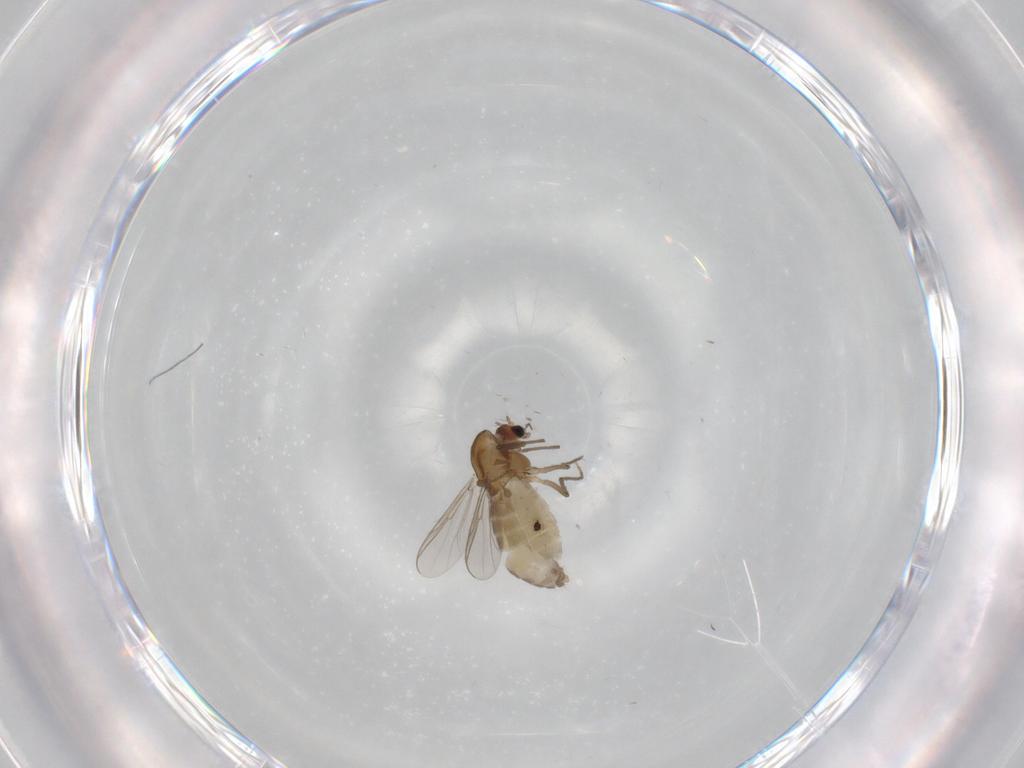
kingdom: Animalia
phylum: Arthropoda
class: Insecta
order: Diptera
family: Chironomidae
